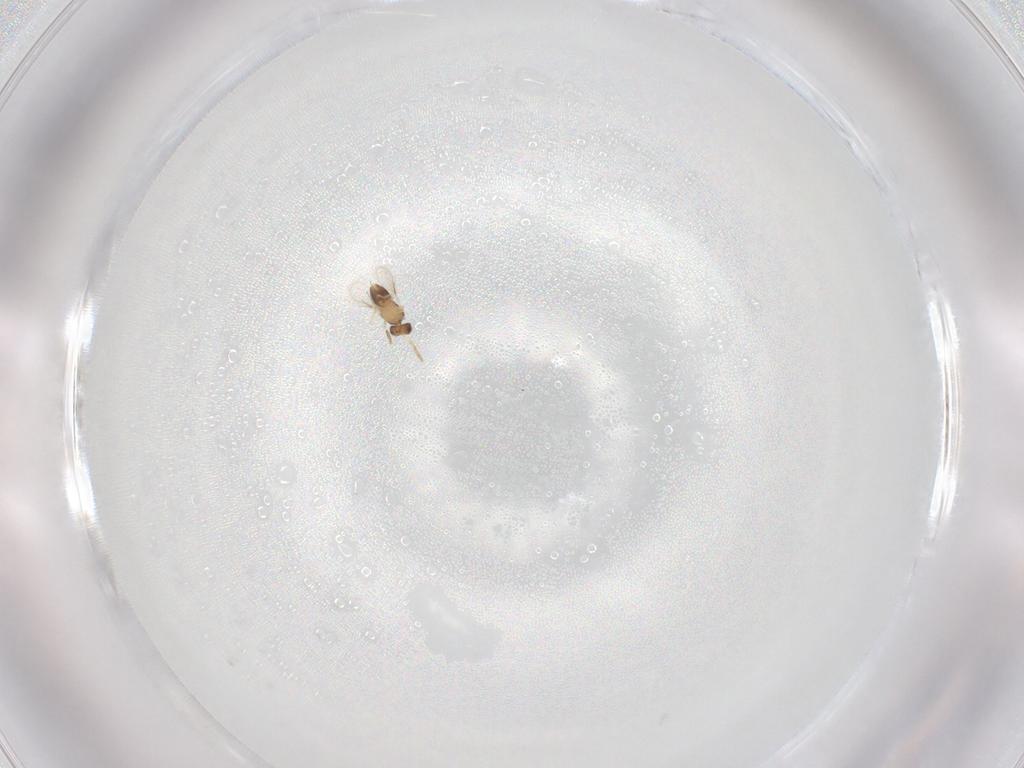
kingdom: Animalia
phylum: Arthropoda
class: Insecta
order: Hymenoptera
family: Aphelinidae
